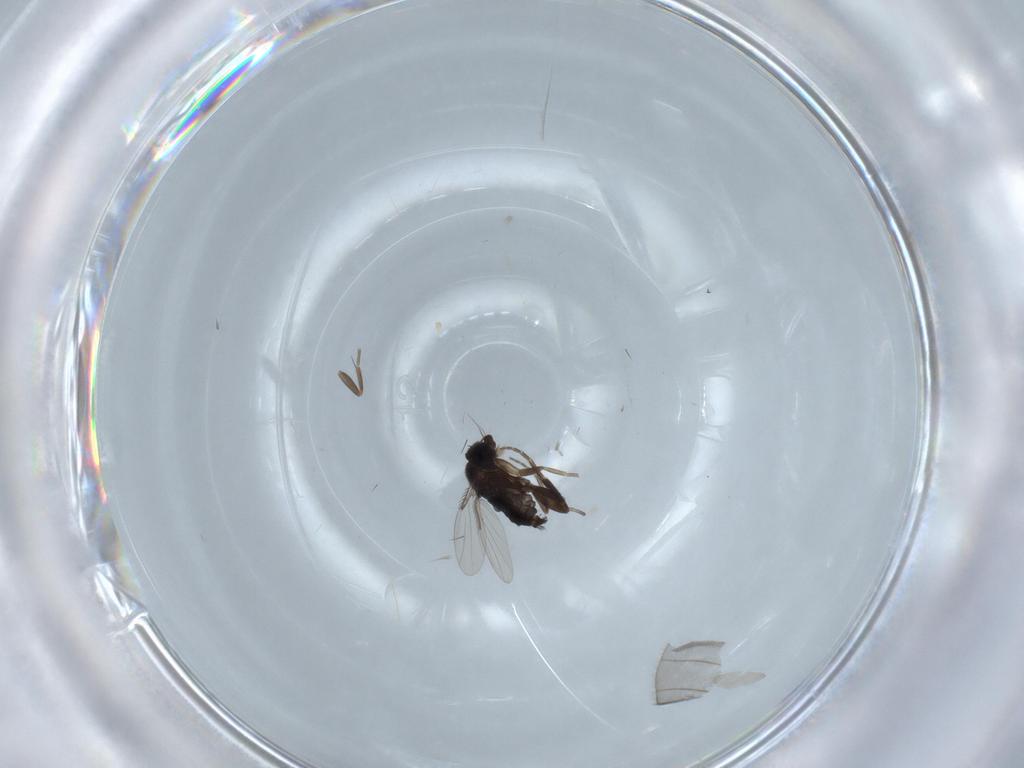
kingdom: Animalia
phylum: Arthropoda
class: Insecta
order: Diptera
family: Phoridae
